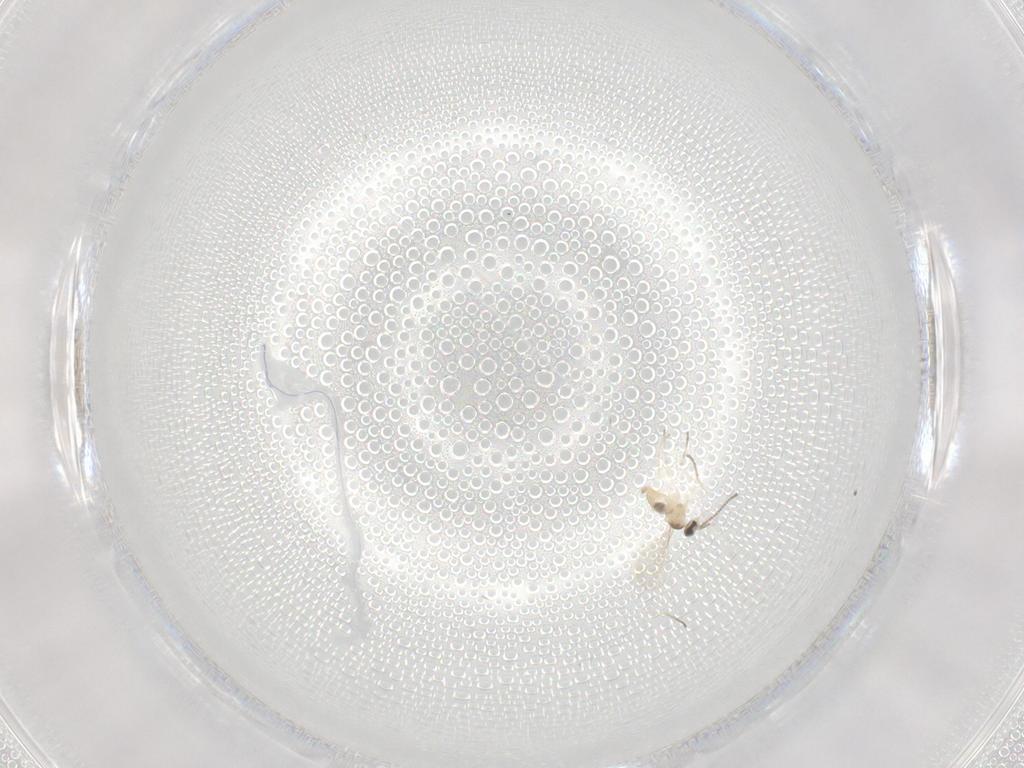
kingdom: Animalia
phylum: Arthropoda
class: Insecta
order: Diptera
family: Cecidomyiidae
